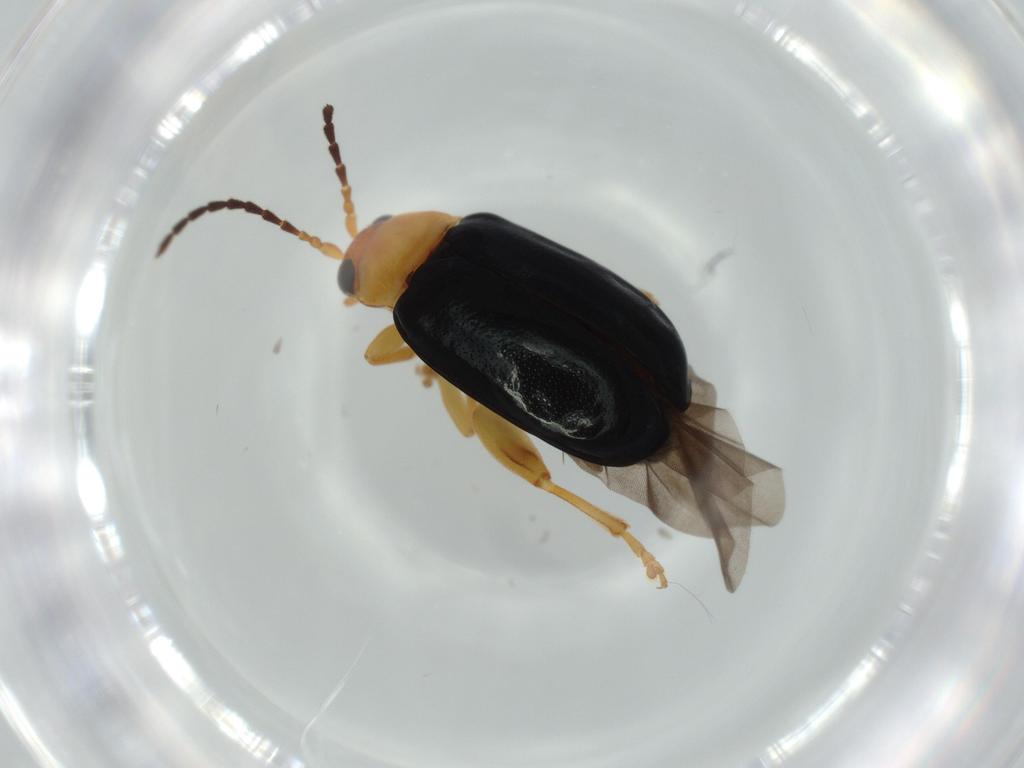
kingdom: Animalia
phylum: Arthropoda
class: Insecta
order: Coleoptera
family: Chrysomelidae
